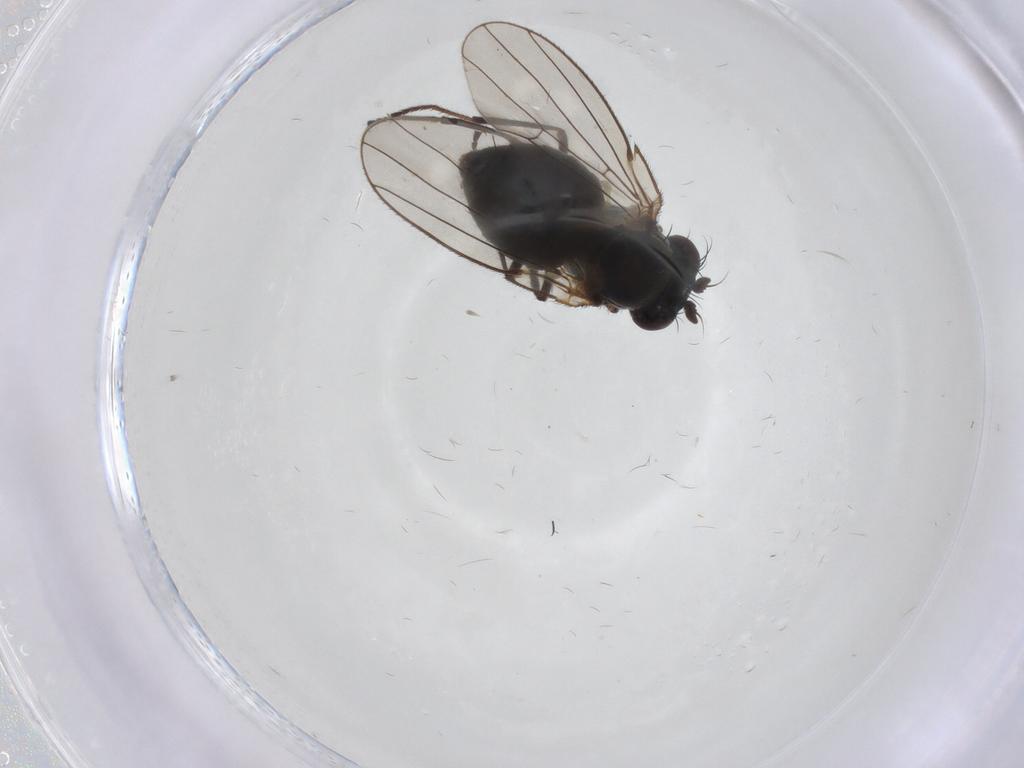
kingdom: Animalia
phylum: Arthropoda
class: Insecta
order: Diptera
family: Ephydridae
